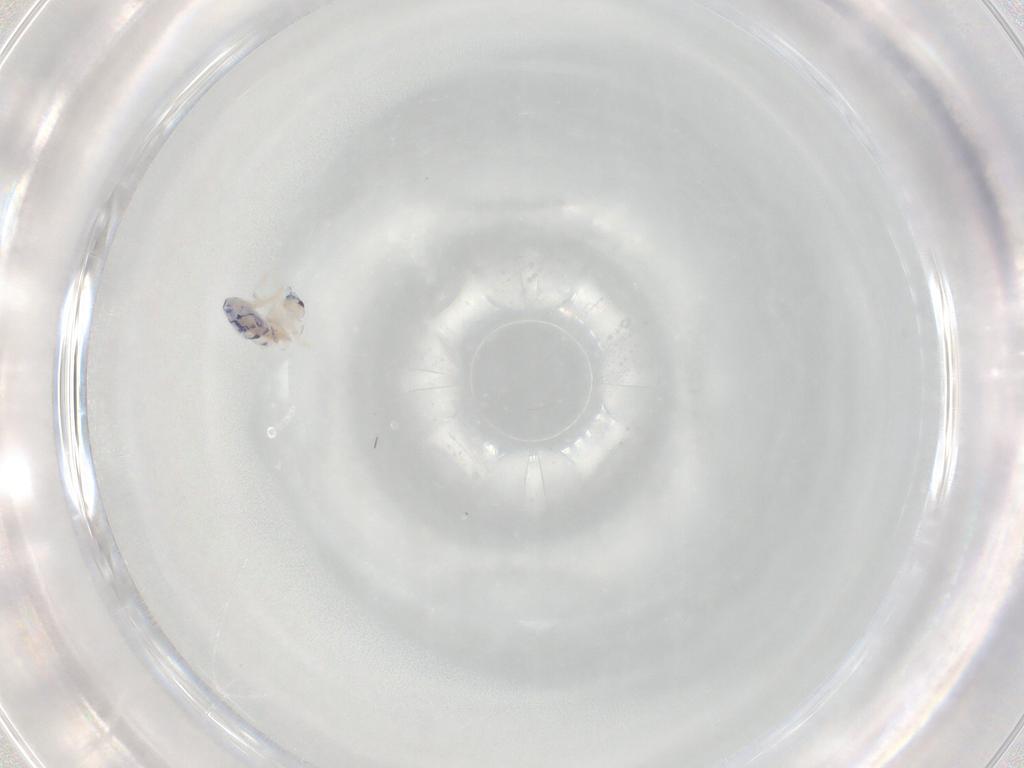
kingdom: Animalia
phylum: Arthropoda
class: Collembola
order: Entomobryomorpha
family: Entomobryidae
